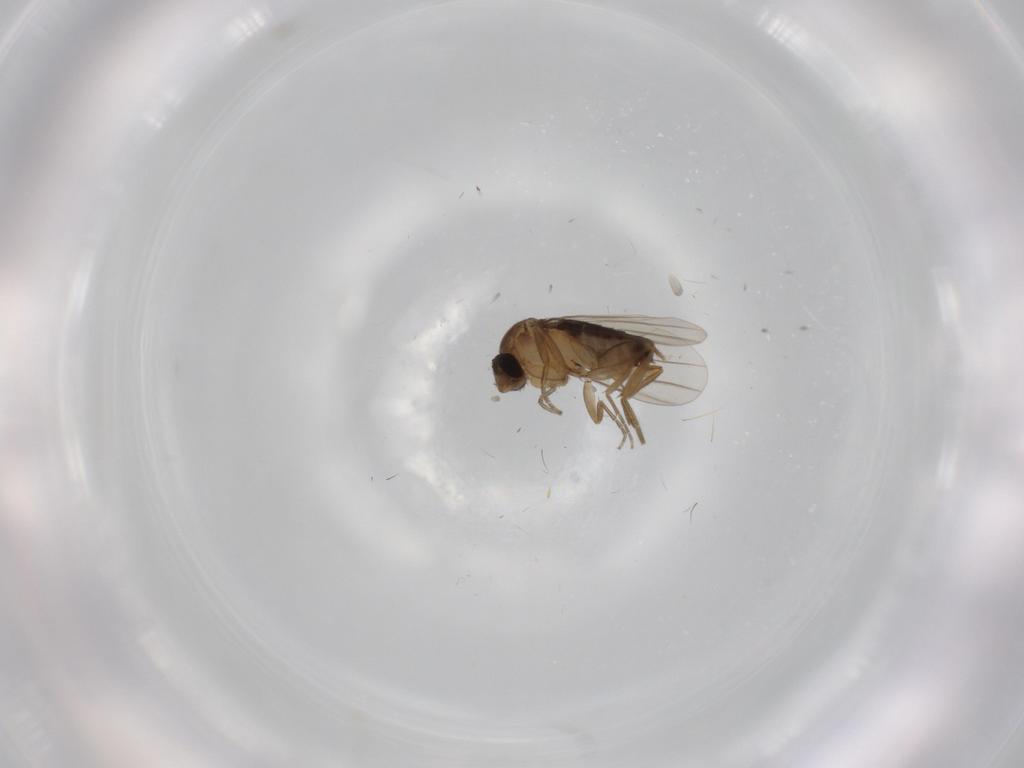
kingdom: Animalia
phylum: Arthropoda
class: Insecta
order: Diptera
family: Phoridae
